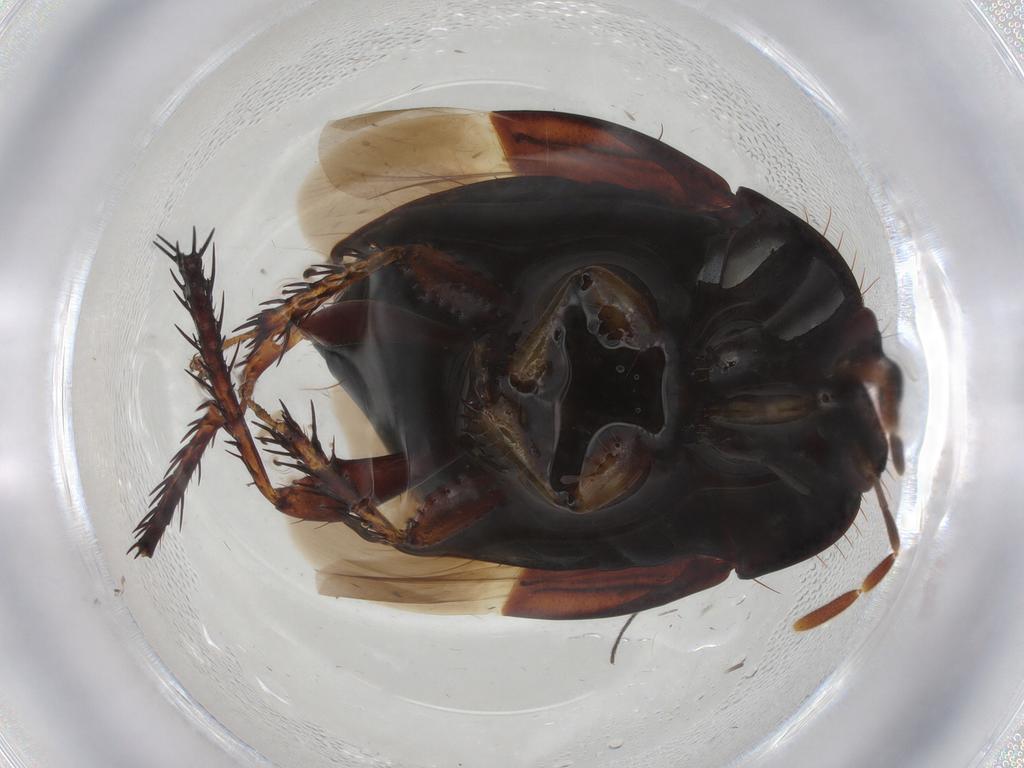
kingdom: Animalia
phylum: Arthropoda
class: Insecta
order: Hemiptera
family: Cydnidae
